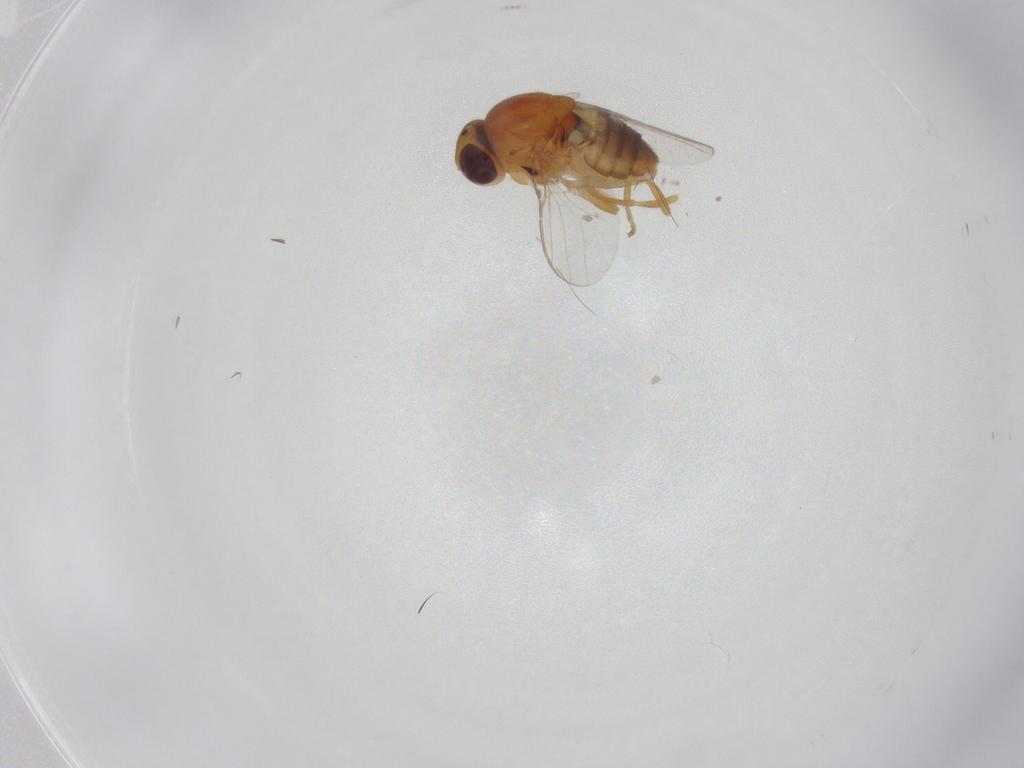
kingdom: Animalia
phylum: Arthropoda
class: Insecta
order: Diptera
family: Chloropidae
